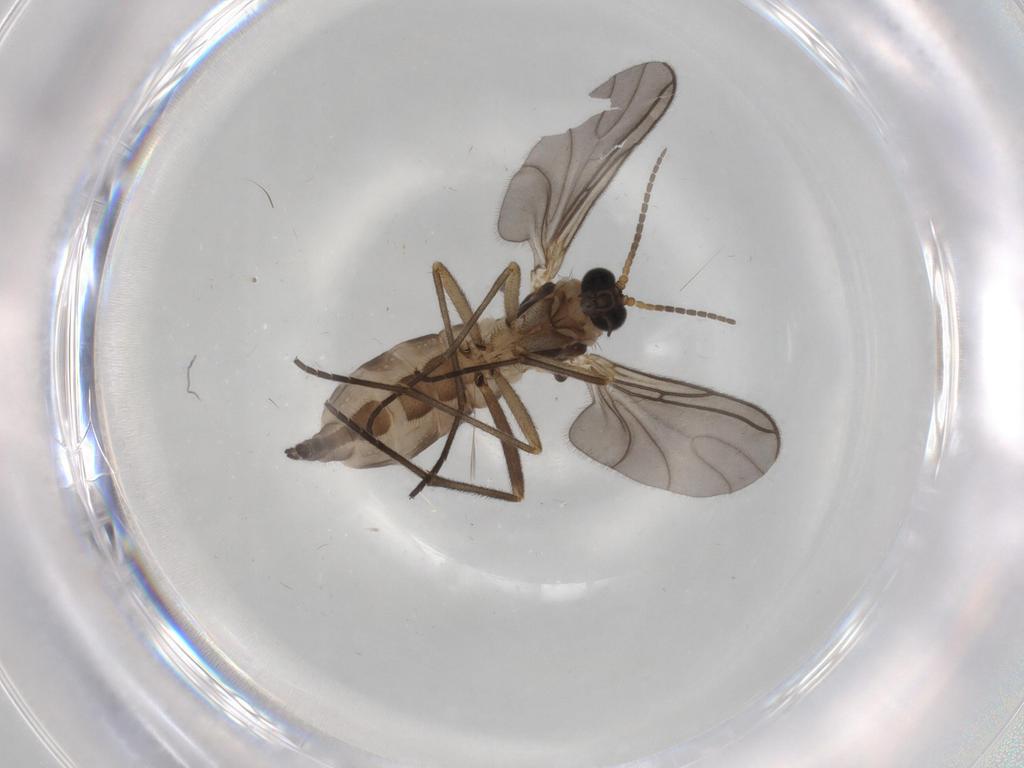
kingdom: Animalia
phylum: Arthropoda
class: Insecta
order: Diptera
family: Sciaridae
